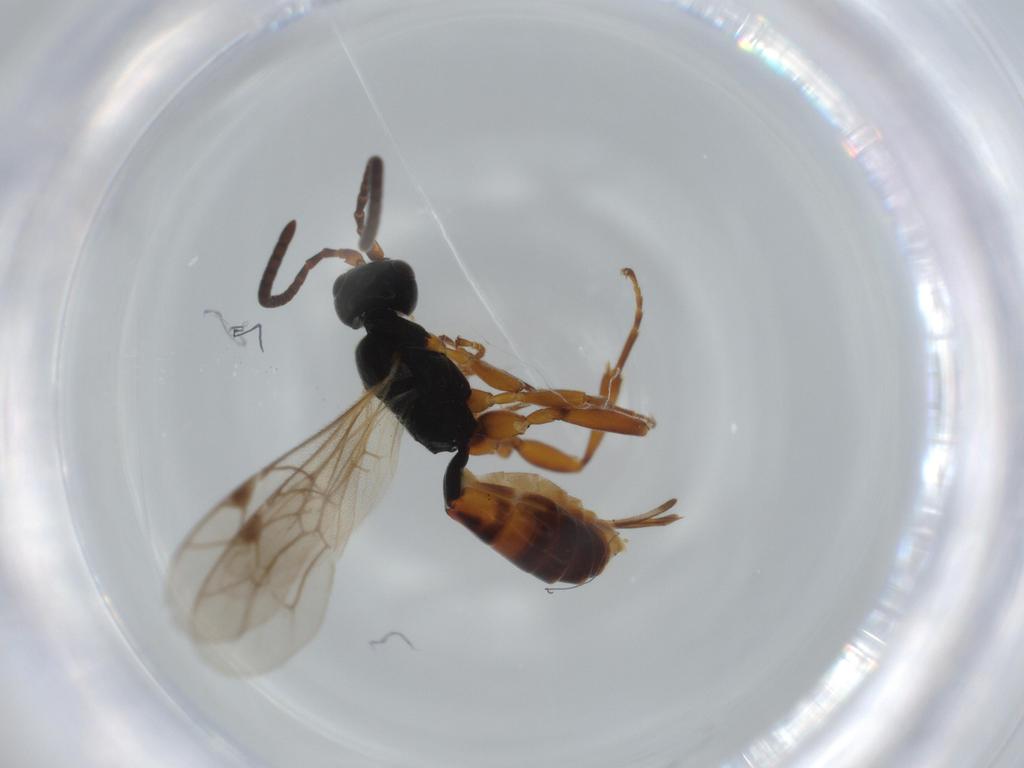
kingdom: Animalia
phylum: Arthropoda
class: Insecta
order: Hymenoptera
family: Ichneumonidae
